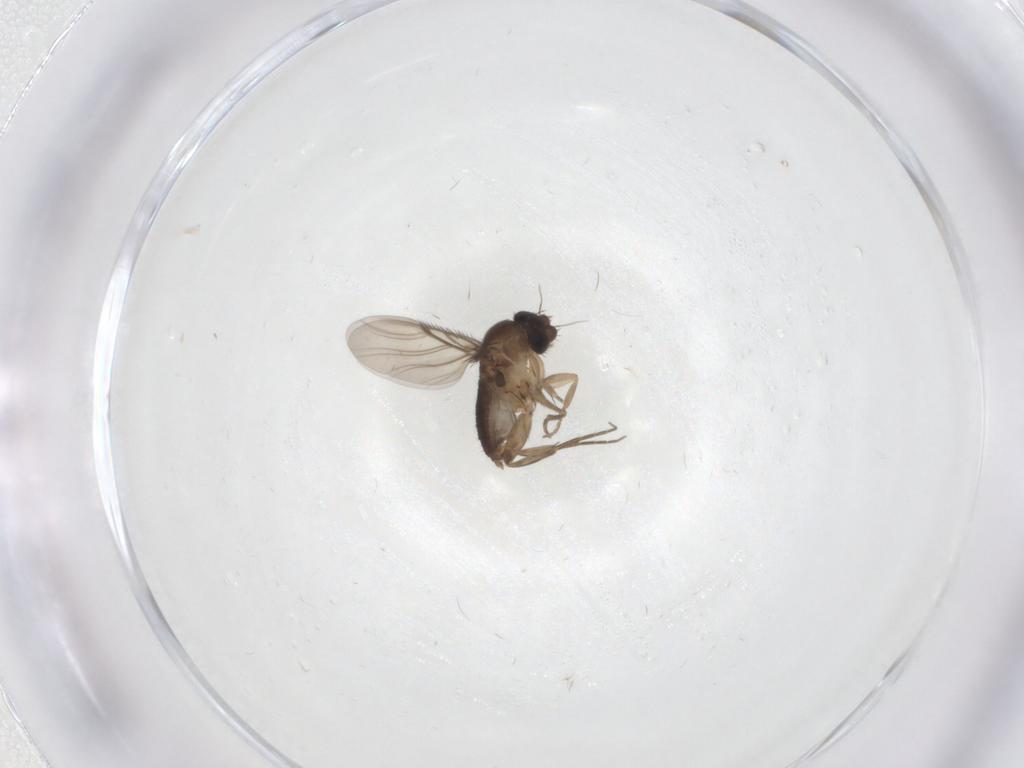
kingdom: Animalia
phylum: Arthropoda
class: Insecta
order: Diptera
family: Phoridae
